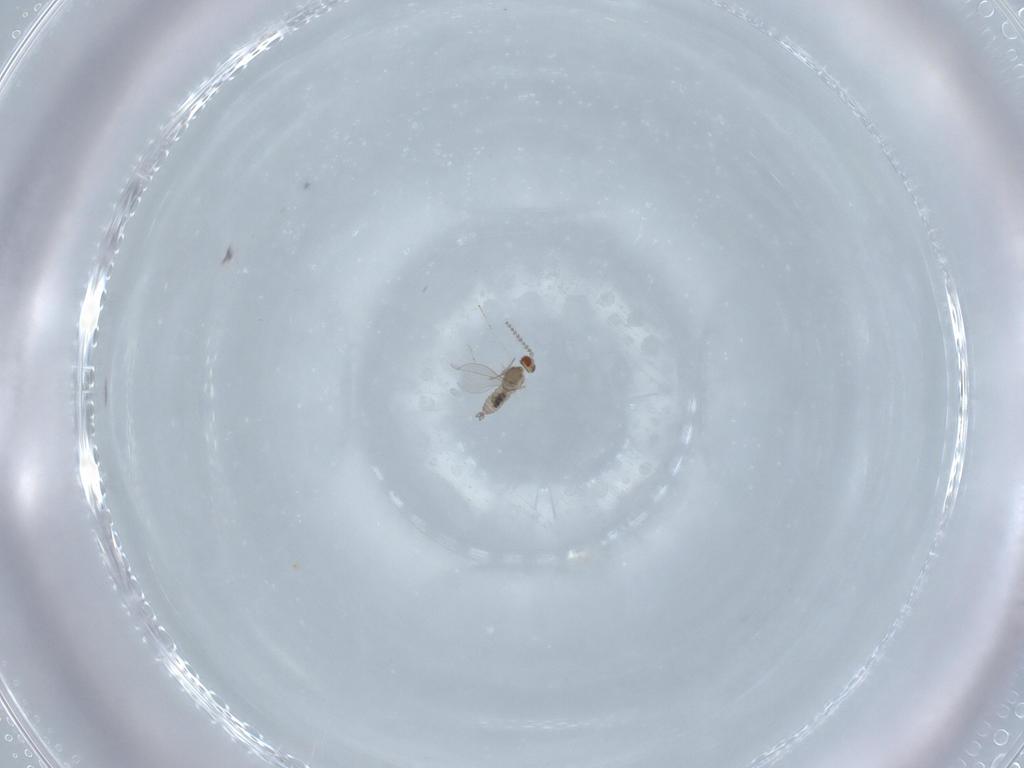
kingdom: Animalia
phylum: Arthropoda
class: Insecta
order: Diptera
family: Cecidomyiidae
